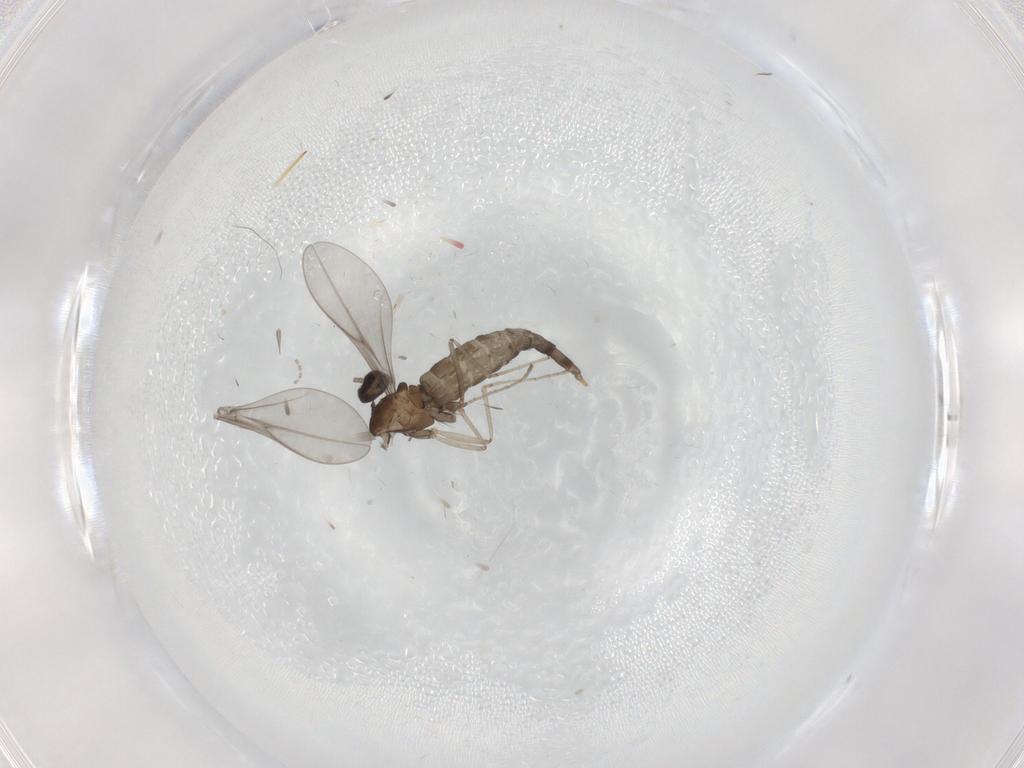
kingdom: Animalia
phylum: Arthropoda
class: Insecta
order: Diptera
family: Cecidomyiidae
